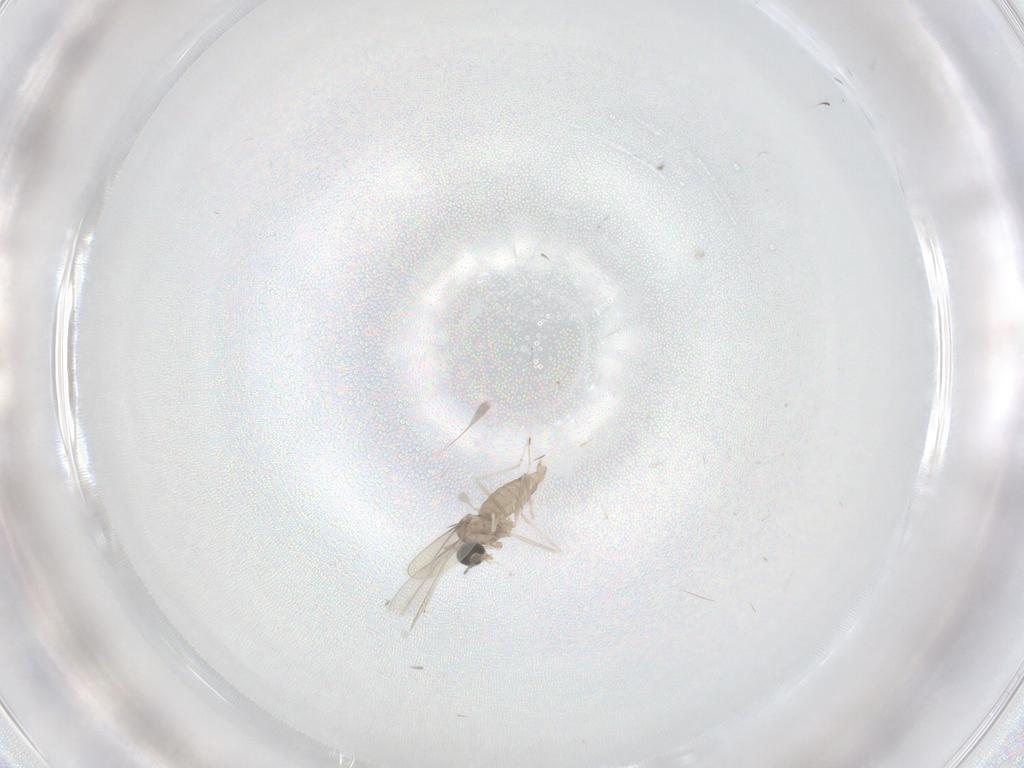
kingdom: Animalia
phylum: Arthropoda
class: Insecta
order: Diptera
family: Cecidomyiidae
